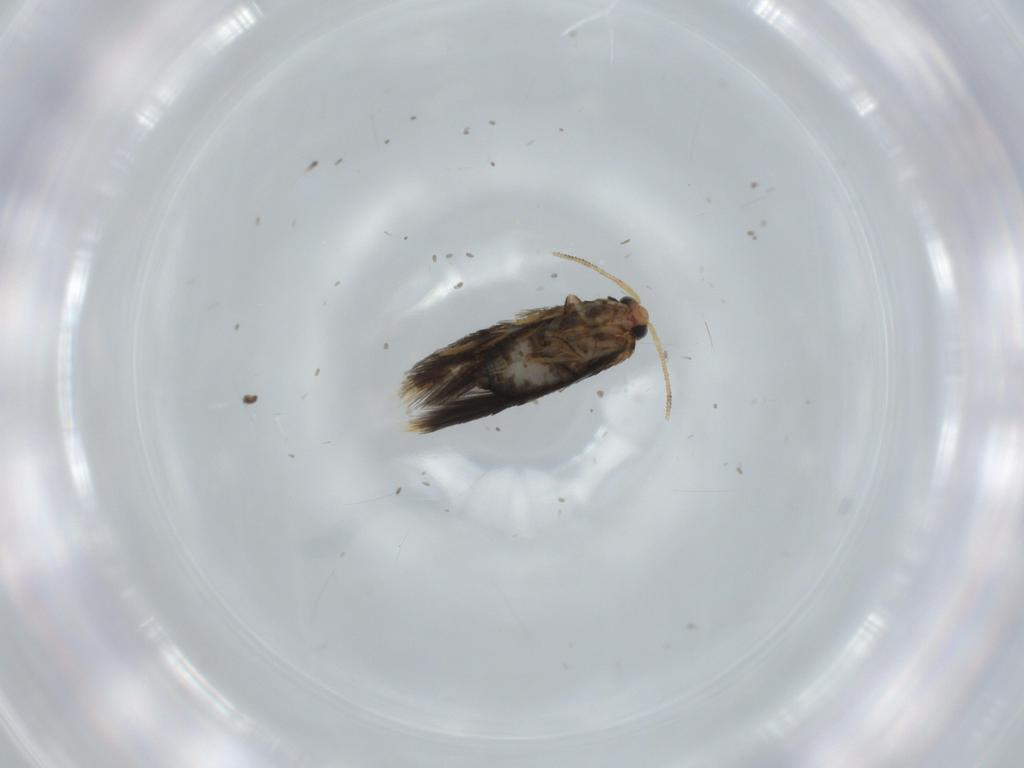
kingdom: Animalia
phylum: Arthropoda
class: Insecta
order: Lepidoptera
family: Nepticulidae
